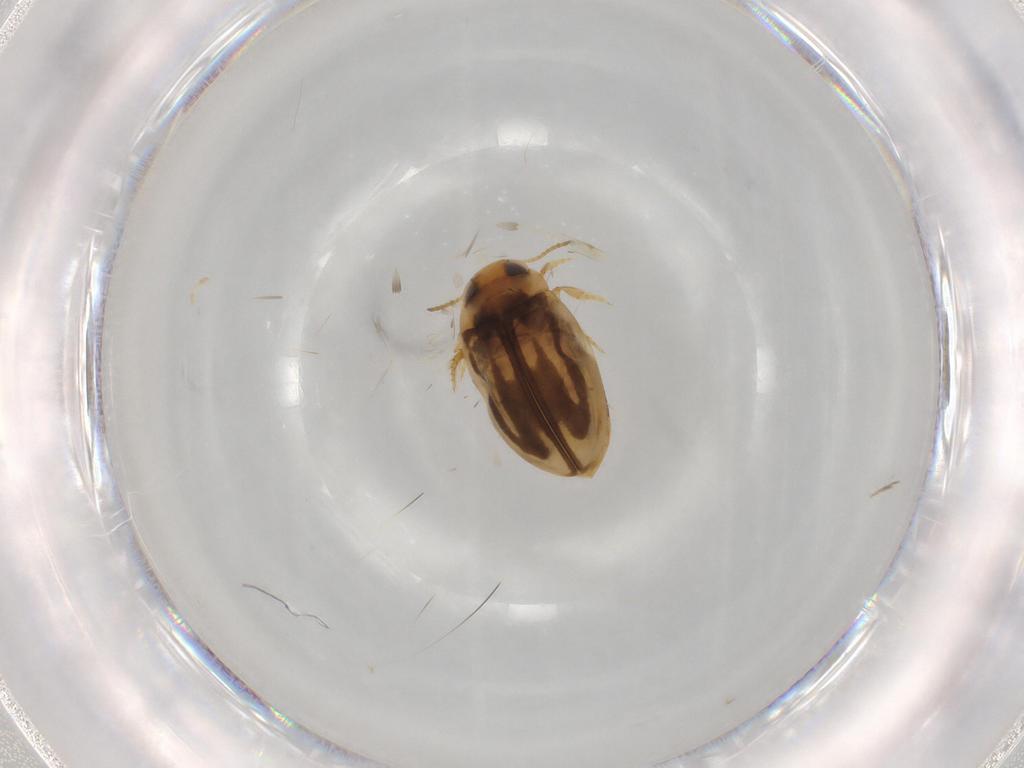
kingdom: Animalia
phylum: Arthropoda
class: Insecta
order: Coleoptera
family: Dytiscidae
